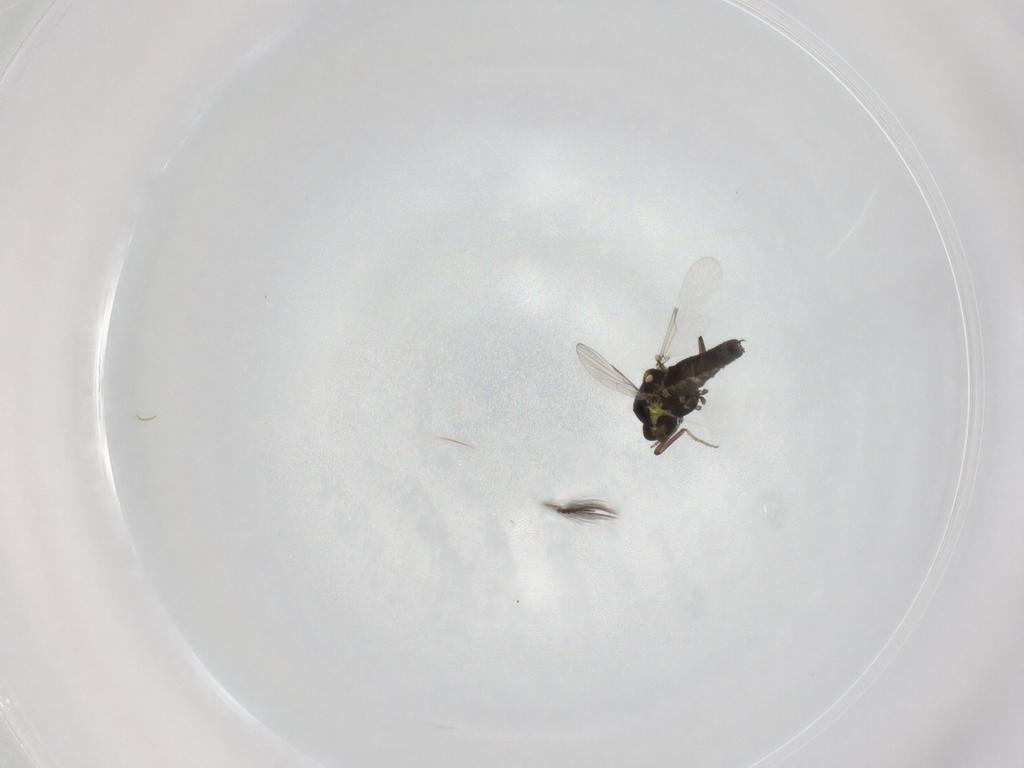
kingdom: Animalia
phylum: Arthropoda
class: Insecta
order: Diptera
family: Ceratopogonidae
